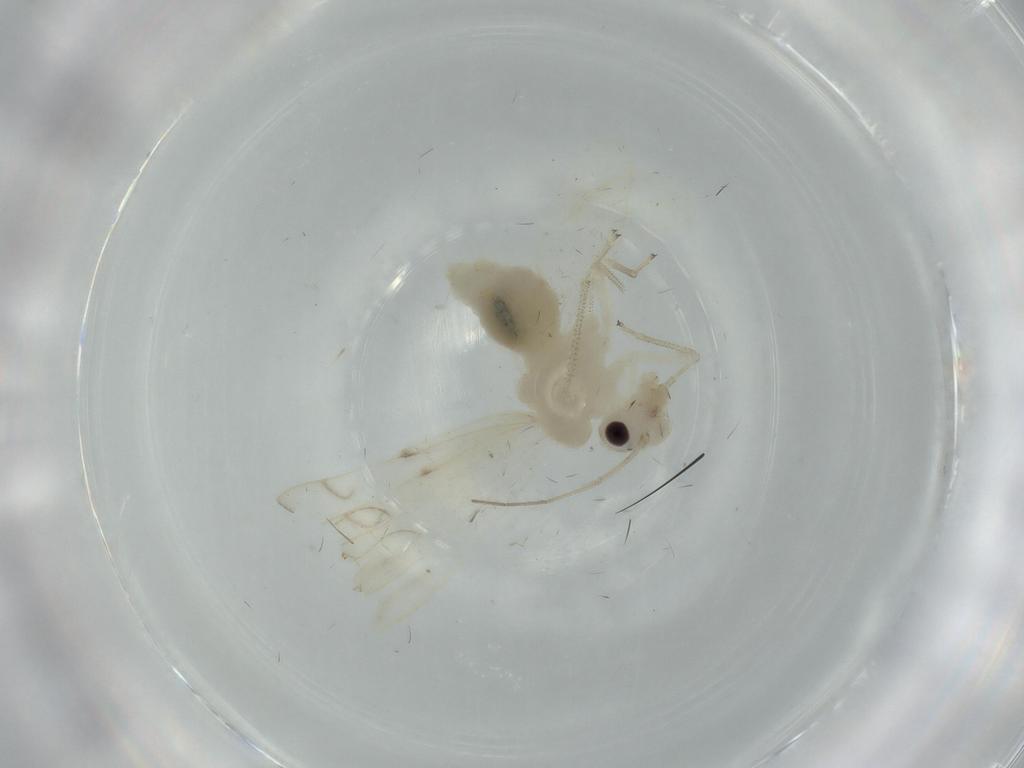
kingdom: Animalia
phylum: Arthropoda
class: Insecta
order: Psocodea
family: Caeciliusidae
